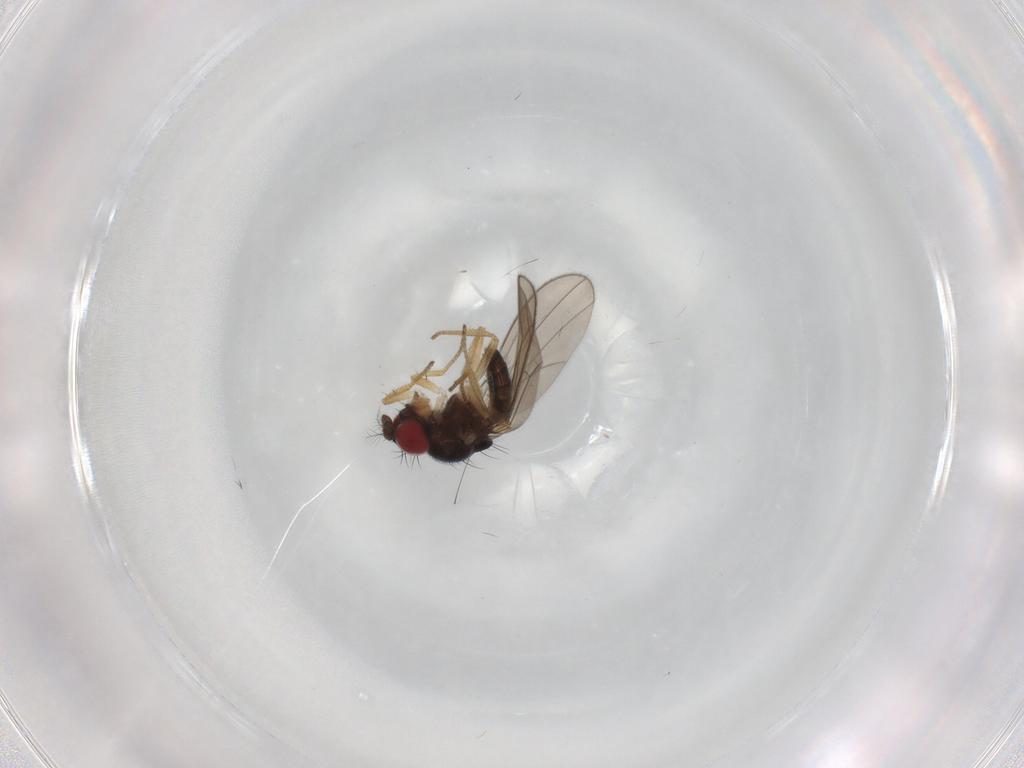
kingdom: Animalia
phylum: Arthropoda
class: Insecta
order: Diptera
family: Drosophilidae
